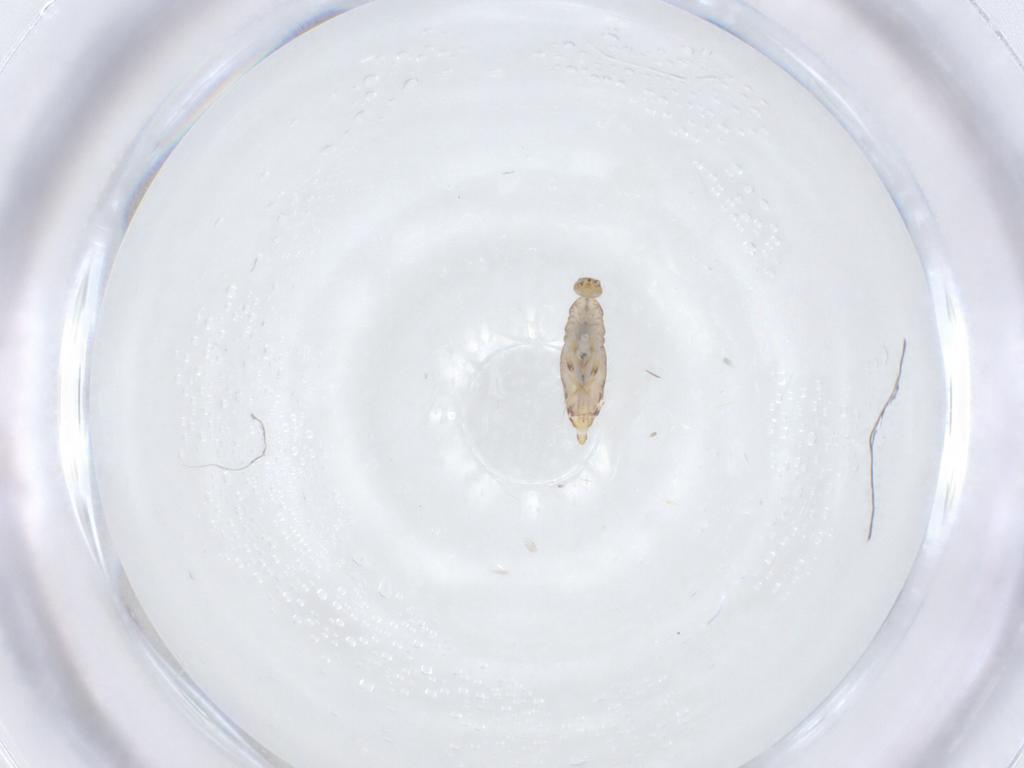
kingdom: Animalia
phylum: Arthropoda
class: Collembola
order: Entomobryomorpha
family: Entomobryidae
